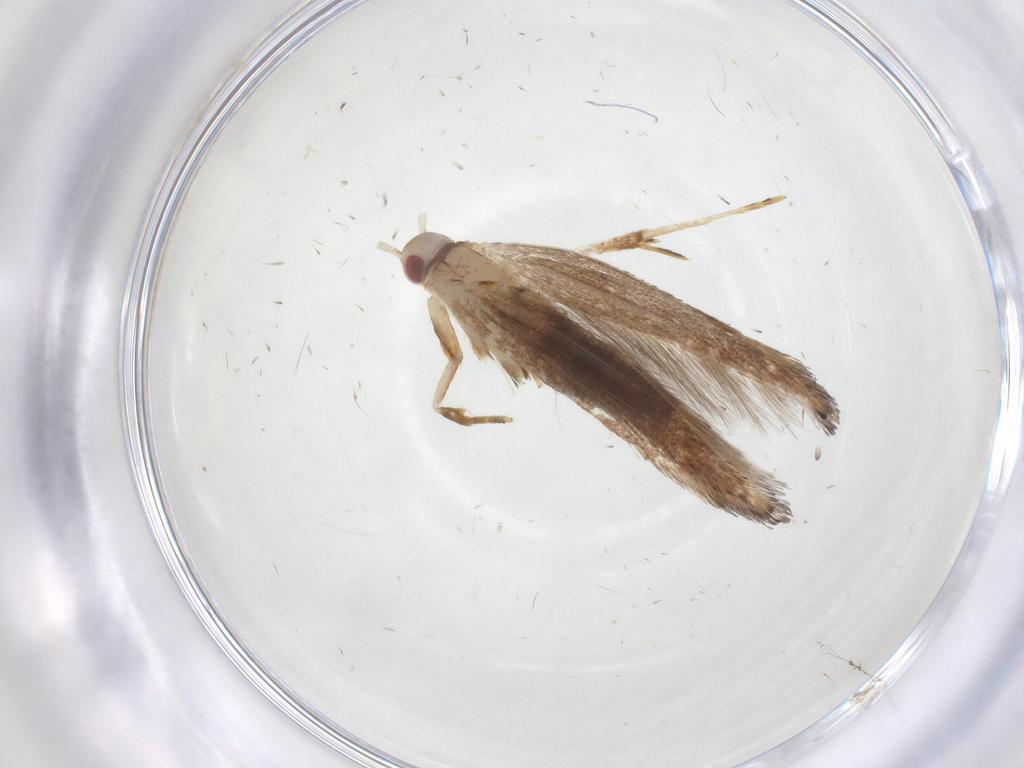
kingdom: Animalia
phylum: Arthropoda
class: Insecta
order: Lepidoptera
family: Cosmopterigidae
